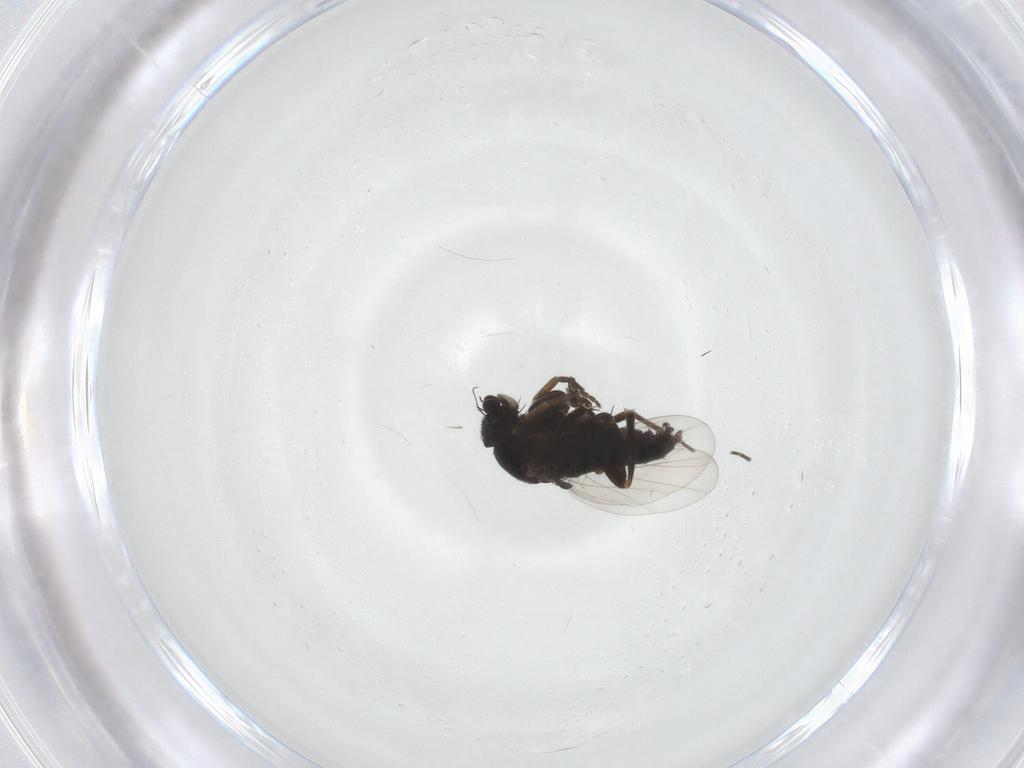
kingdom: Animalia
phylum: Arthropoda
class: Insecta
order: Diptera
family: Phoridae
